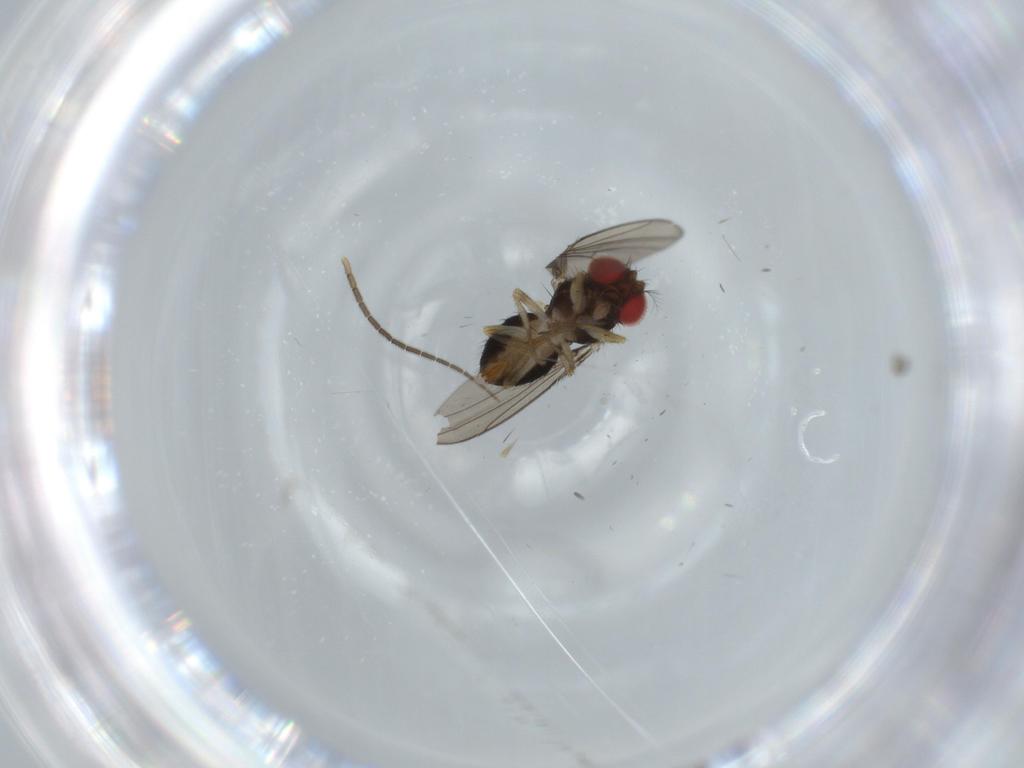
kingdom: Animalia
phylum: Arthropoda
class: Insecta
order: Diptera
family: Drosophilidae
